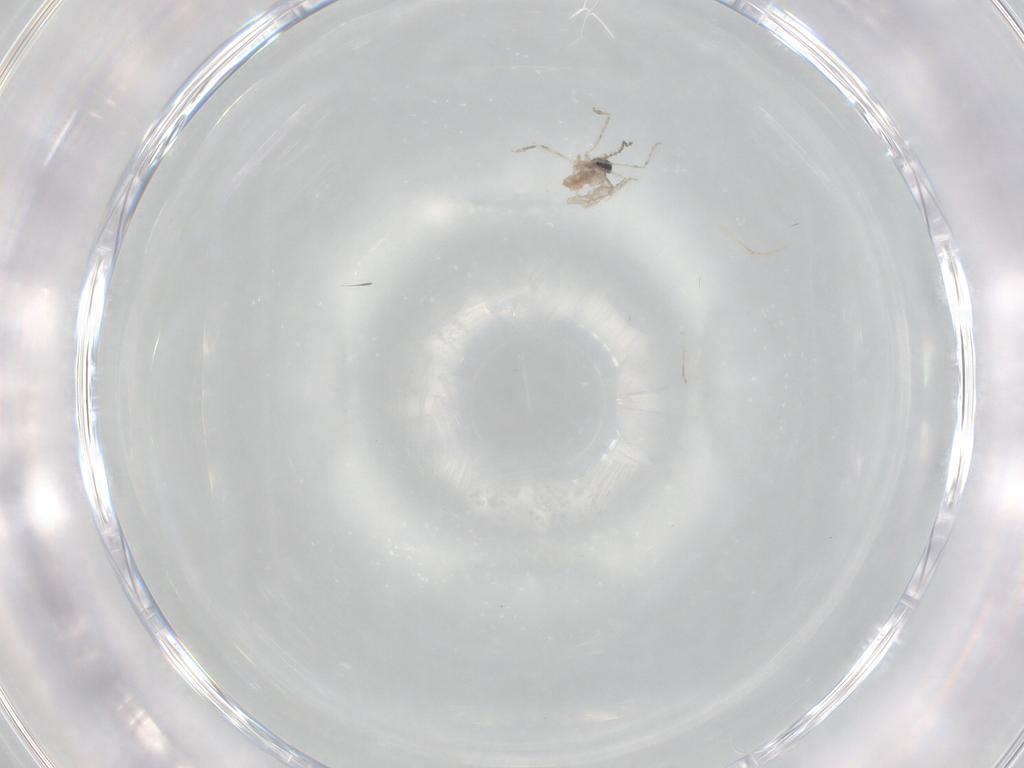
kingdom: Animalia
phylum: Arthropoda
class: Insecta
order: Diptera
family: Cecidomyiidae
